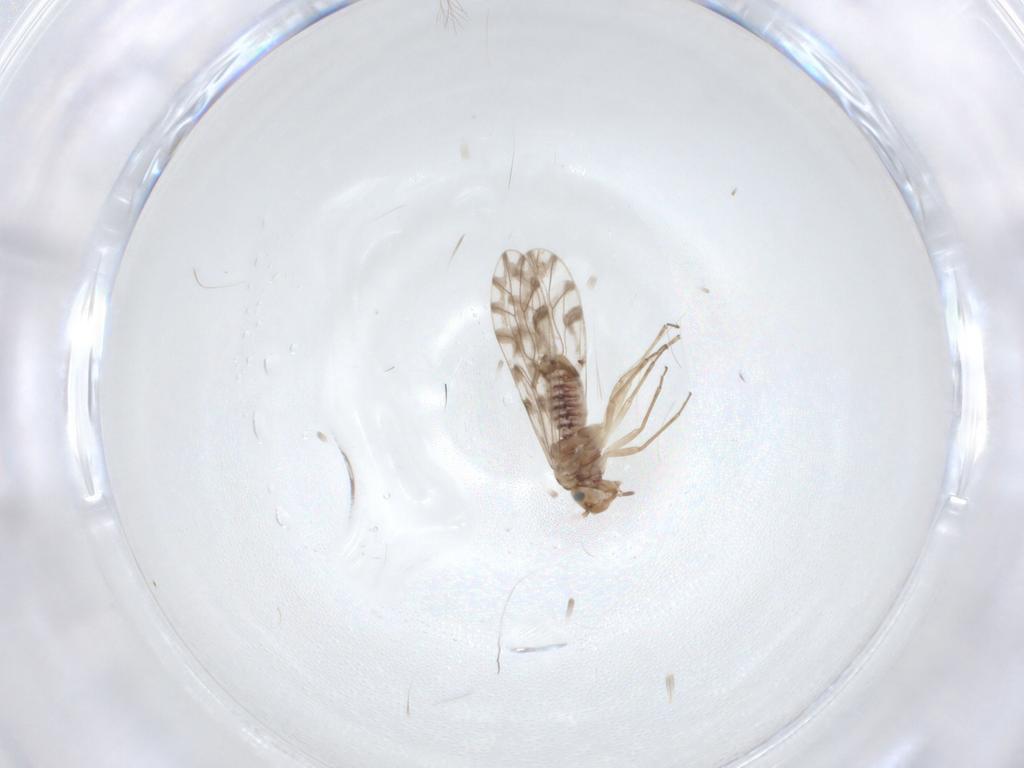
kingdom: Animalia
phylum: Arthropoda
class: Insecta
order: Psocodea
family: Lachesillidae
